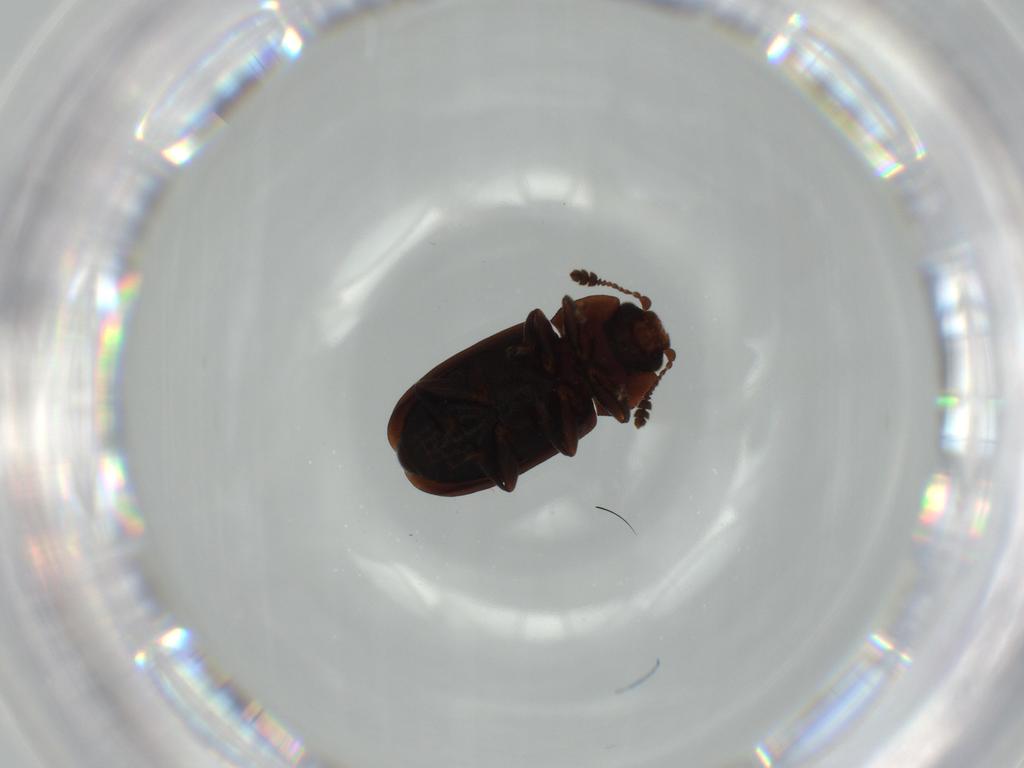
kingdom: Animalia
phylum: Arthropoda
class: Insecta
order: Coleoptera
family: Nitidulidae
